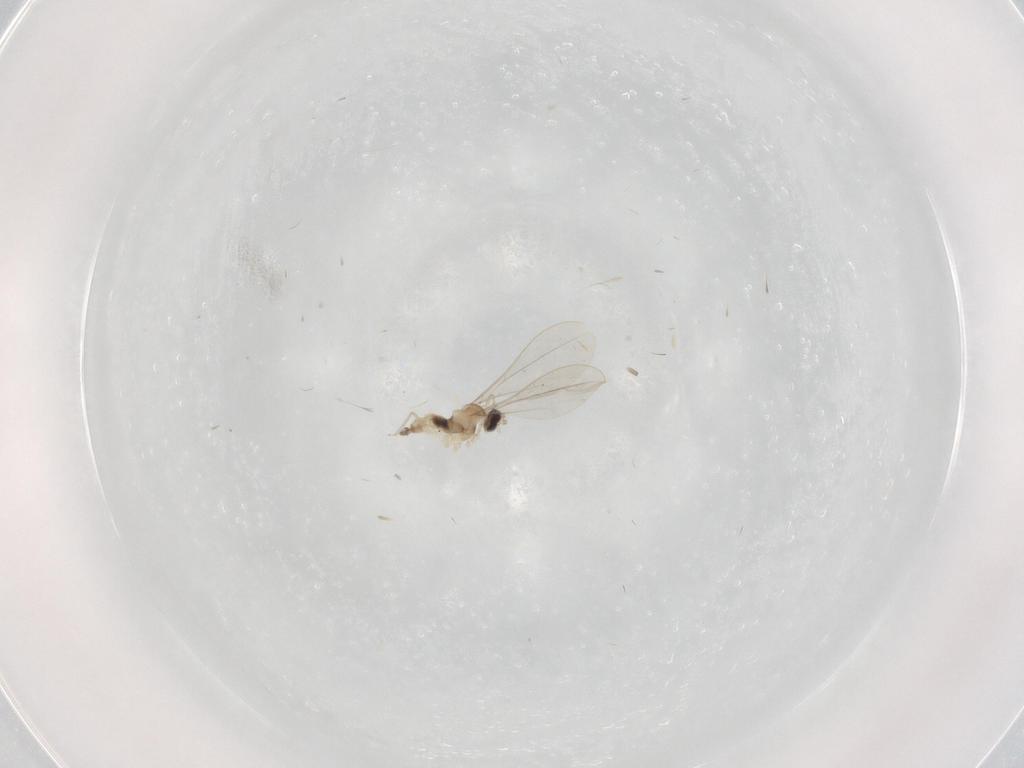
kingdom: Animalia
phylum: Arthropoda
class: Insecta
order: Diptera
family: Cecidomyiidae
